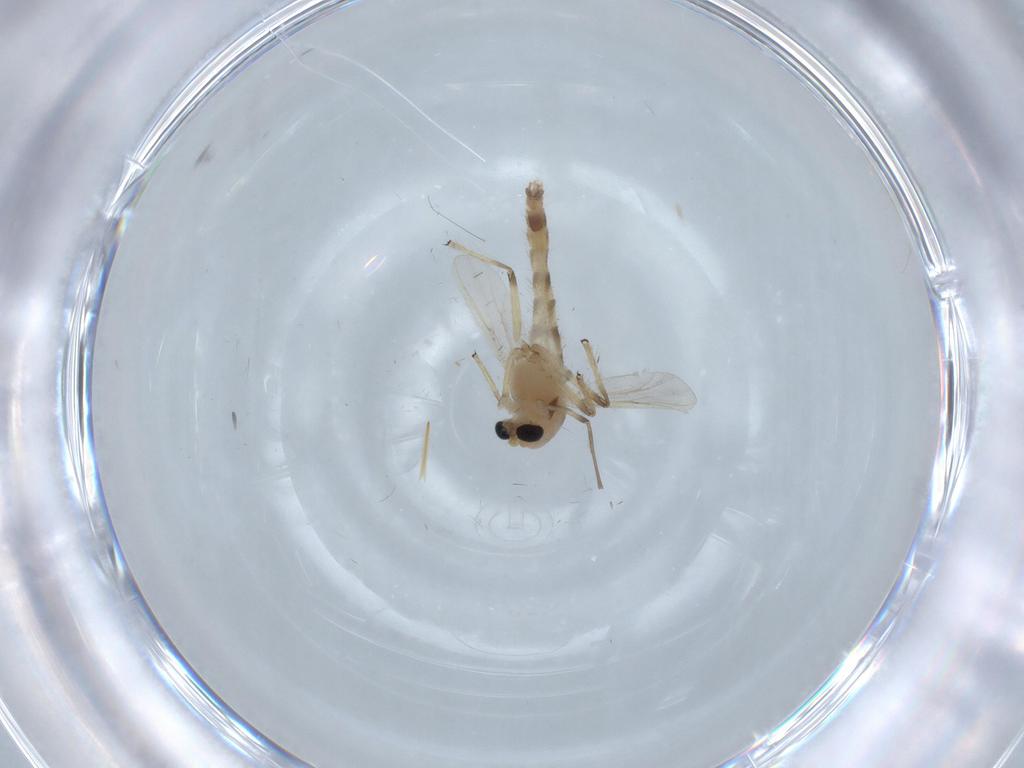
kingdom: Animalia
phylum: Arthropoda
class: Insecta
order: Diptera
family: Chironomidae
